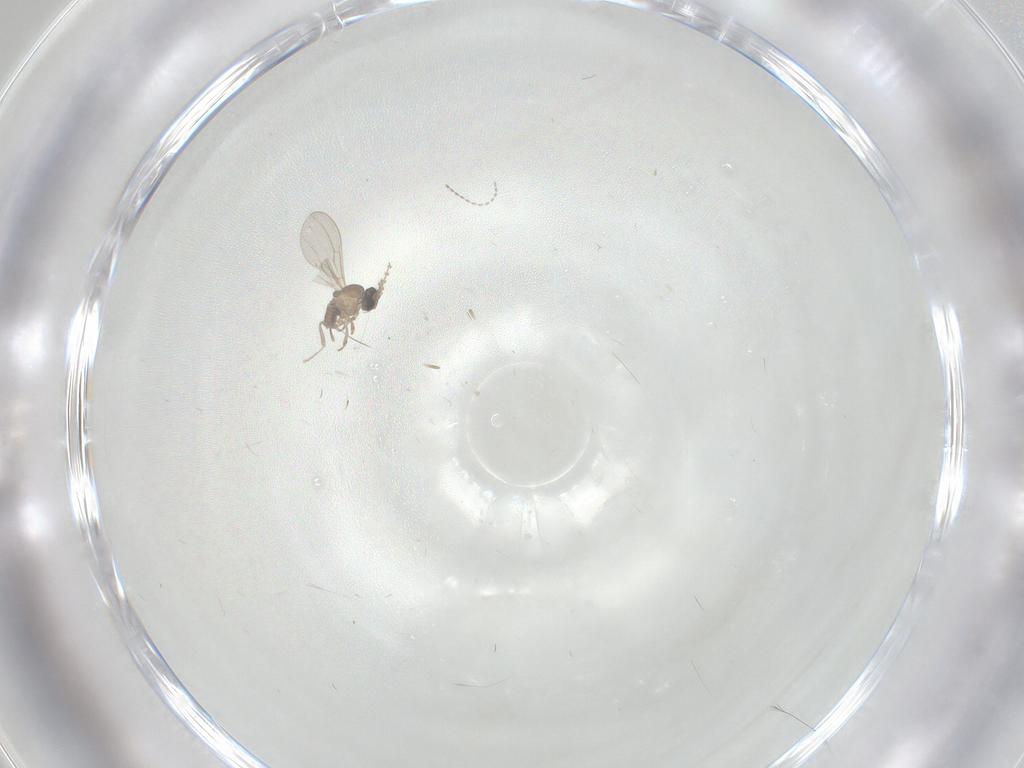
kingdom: Animalia
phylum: Arthropoda
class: Insecta
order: Diptera
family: Cecidomyiidae
